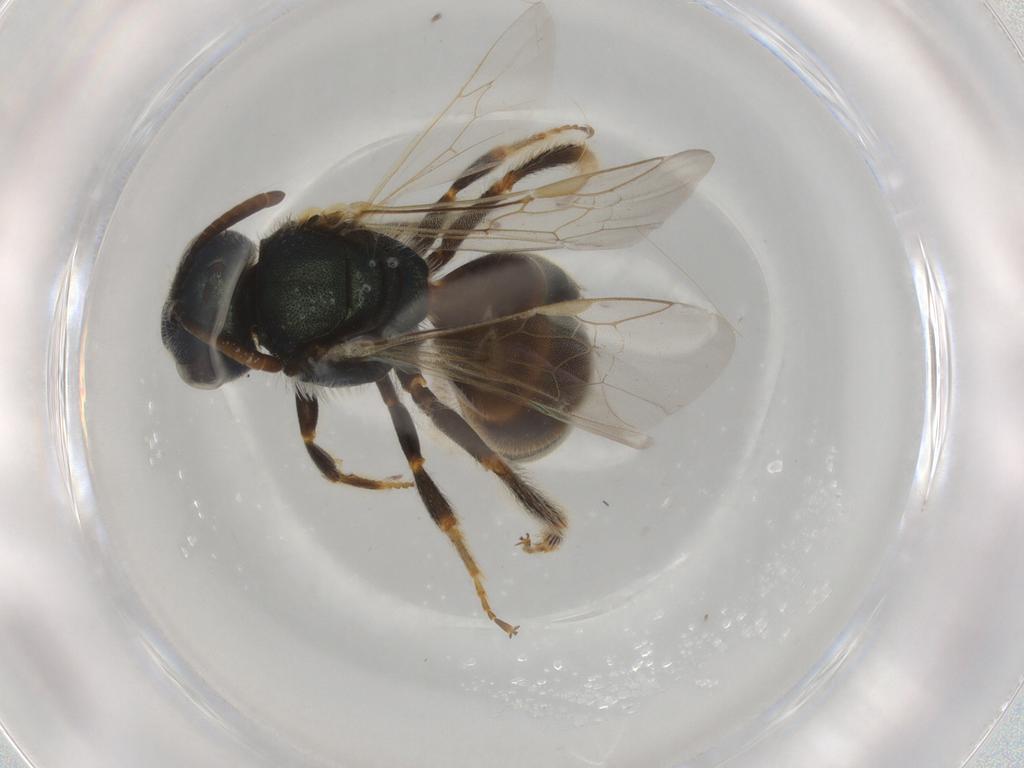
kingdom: Animalia
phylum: Arthropoda
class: Insecta
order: Hymenoptera
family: Halictidae
